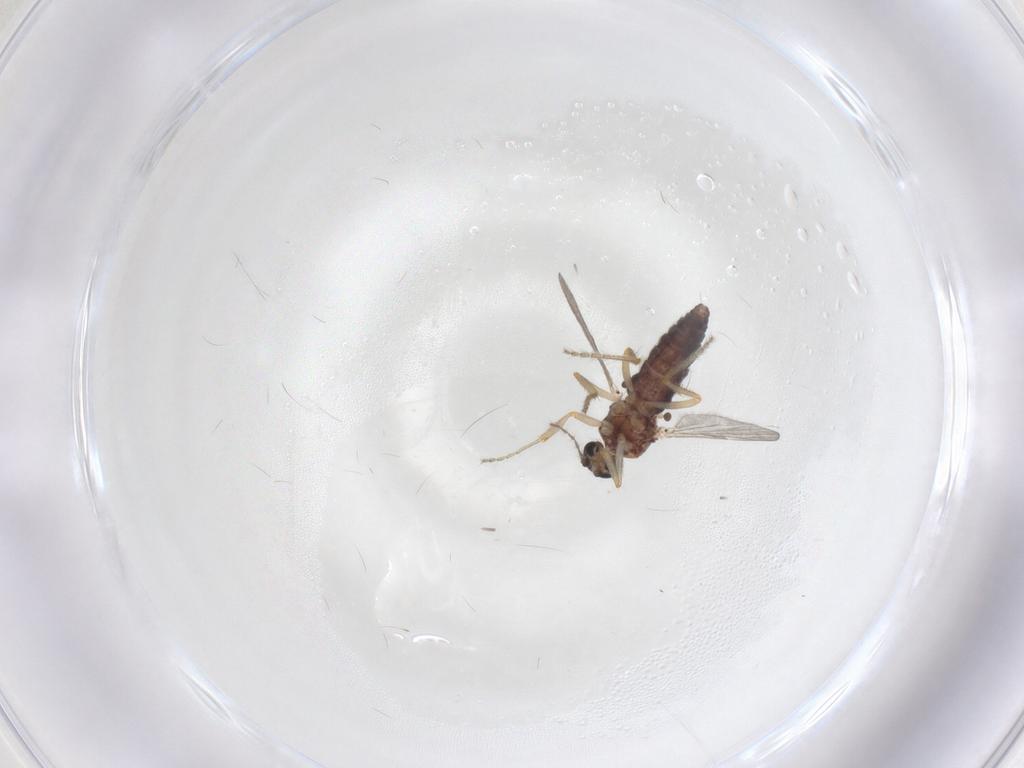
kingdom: Animalia
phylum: Arthropoda
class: Insecta
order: Diptera
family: Ceratopogonidae
